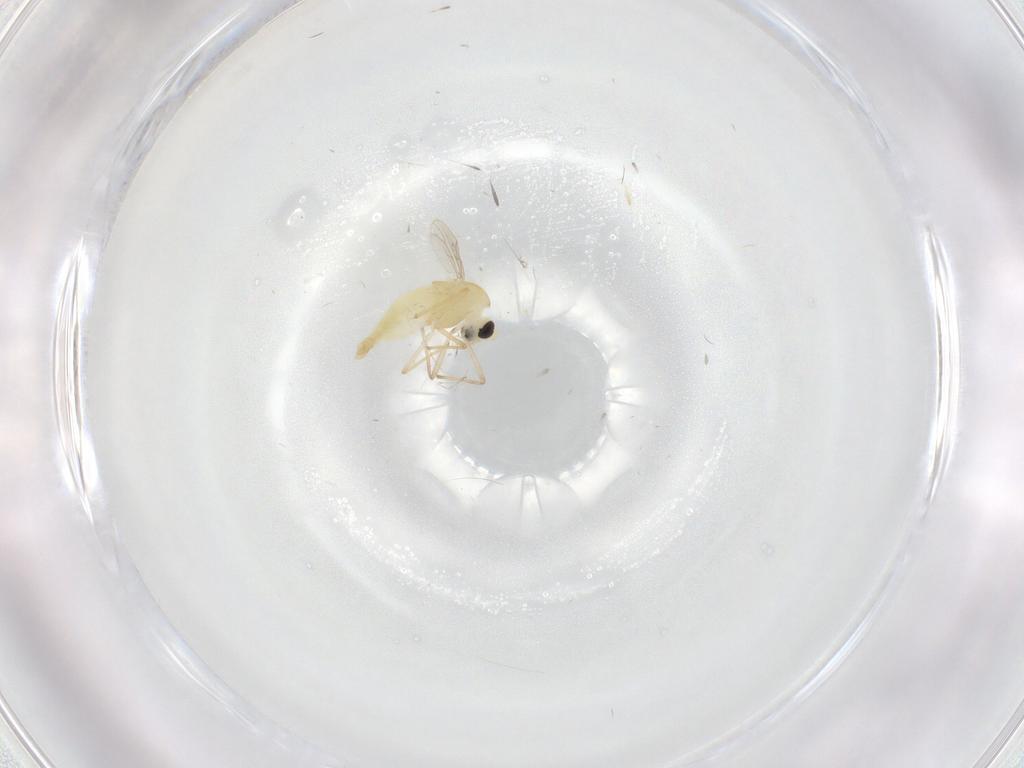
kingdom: Animalia
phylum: Arthropoda
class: Insecta
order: Diptera
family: Chironomidae
